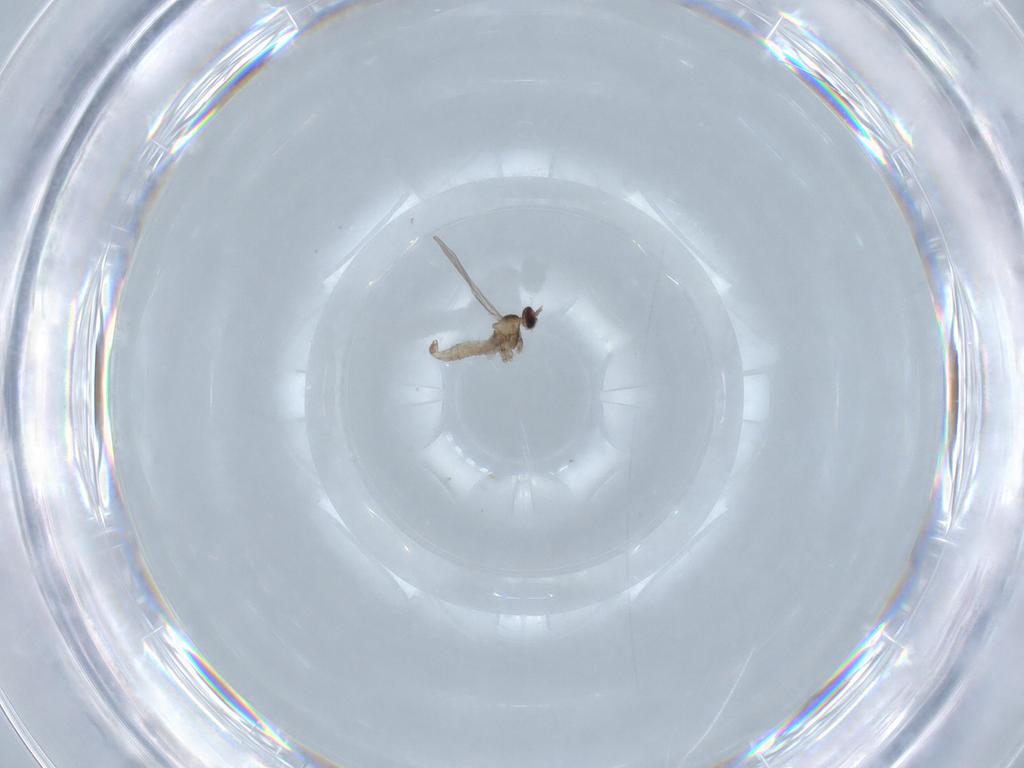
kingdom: Animalia
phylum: Arthropoda
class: Insecta
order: Diptera
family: Cecidomyiidae
